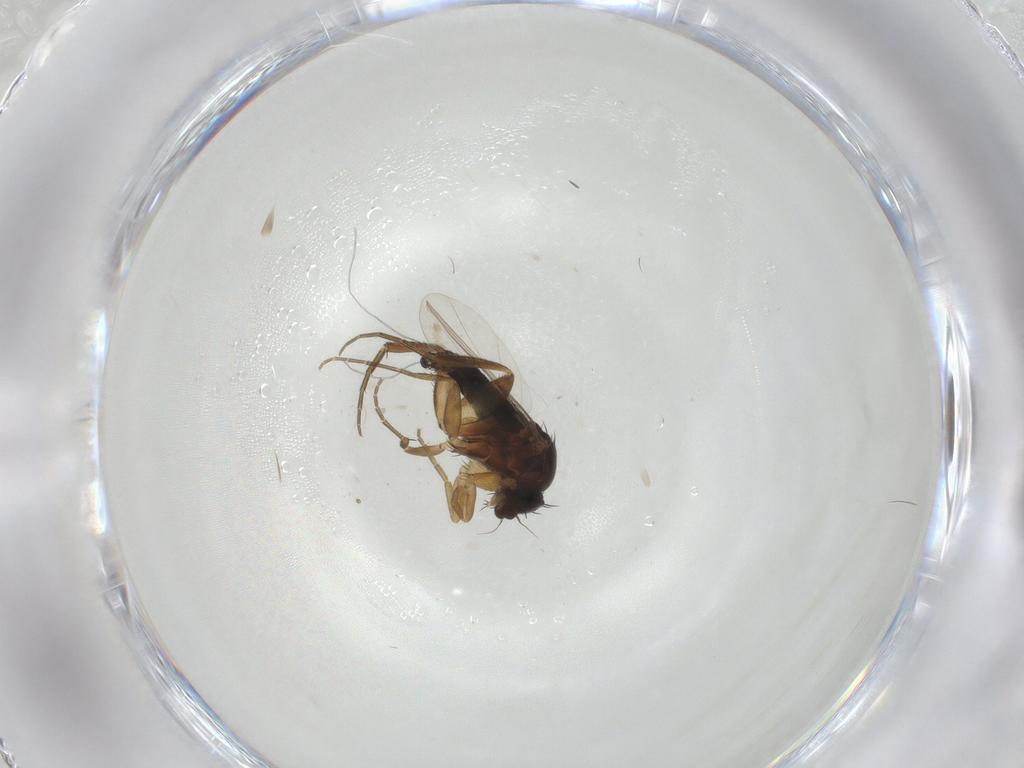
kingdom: Animalia
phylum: Arthropoda
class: Insecta
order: Diptera
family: Phoridae
